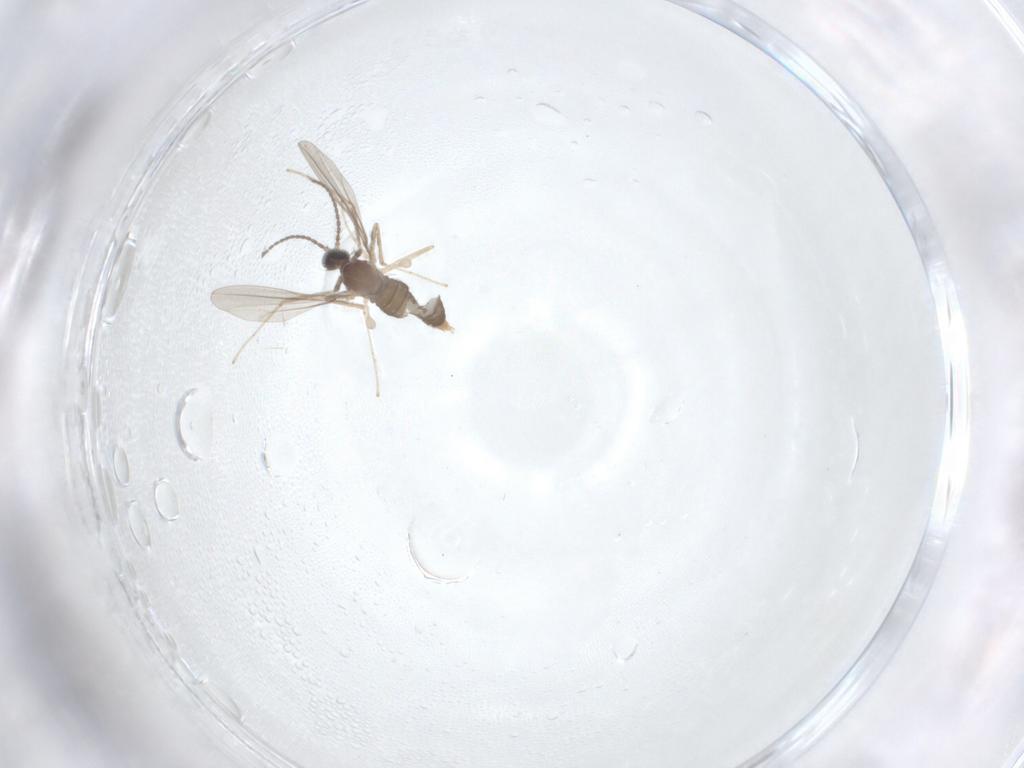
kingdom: Animalia
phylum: Arthropoda
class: Insecta
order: Diptera
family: Cecidomyiidae
